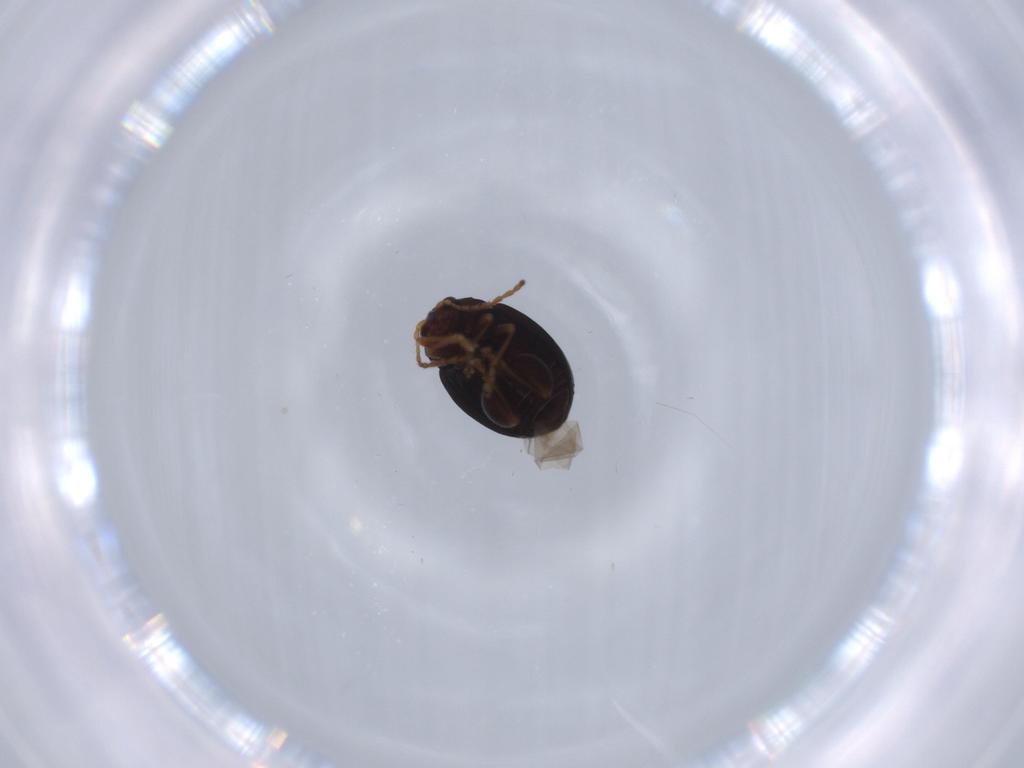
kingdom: Animalia
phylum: Arthropoda
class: Insecta
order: Coleoptera
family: Chrysomelidae
